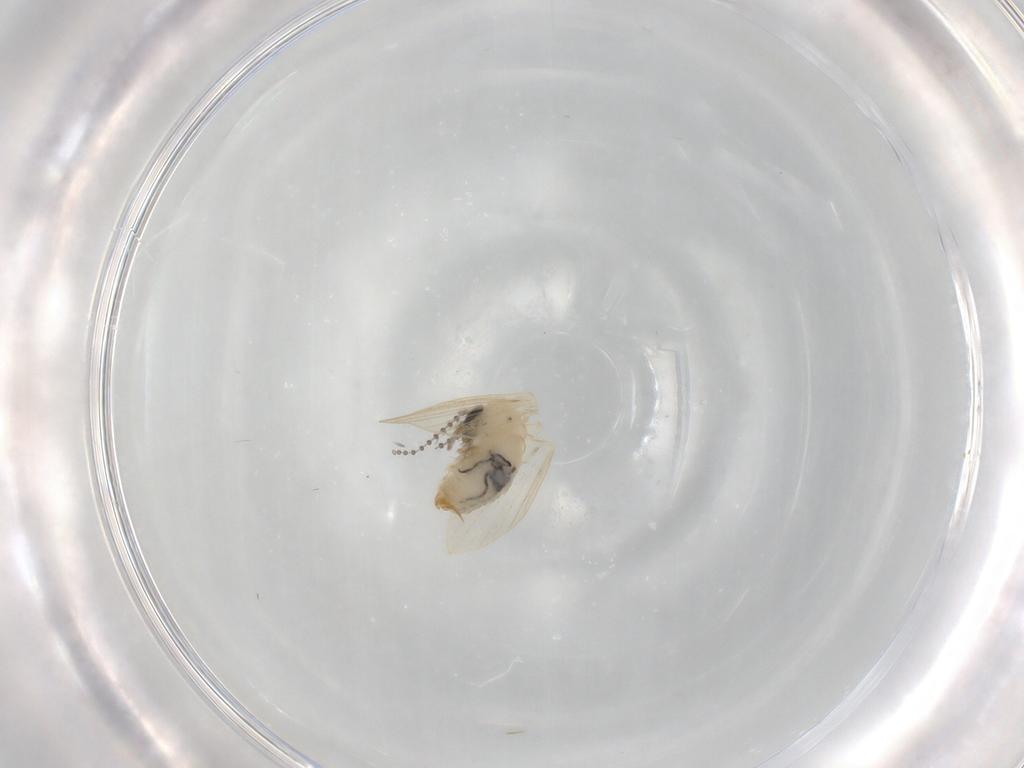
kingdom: Animalia
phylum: Arthropoda
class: Insecta
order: Diptera
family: Psychodidae
